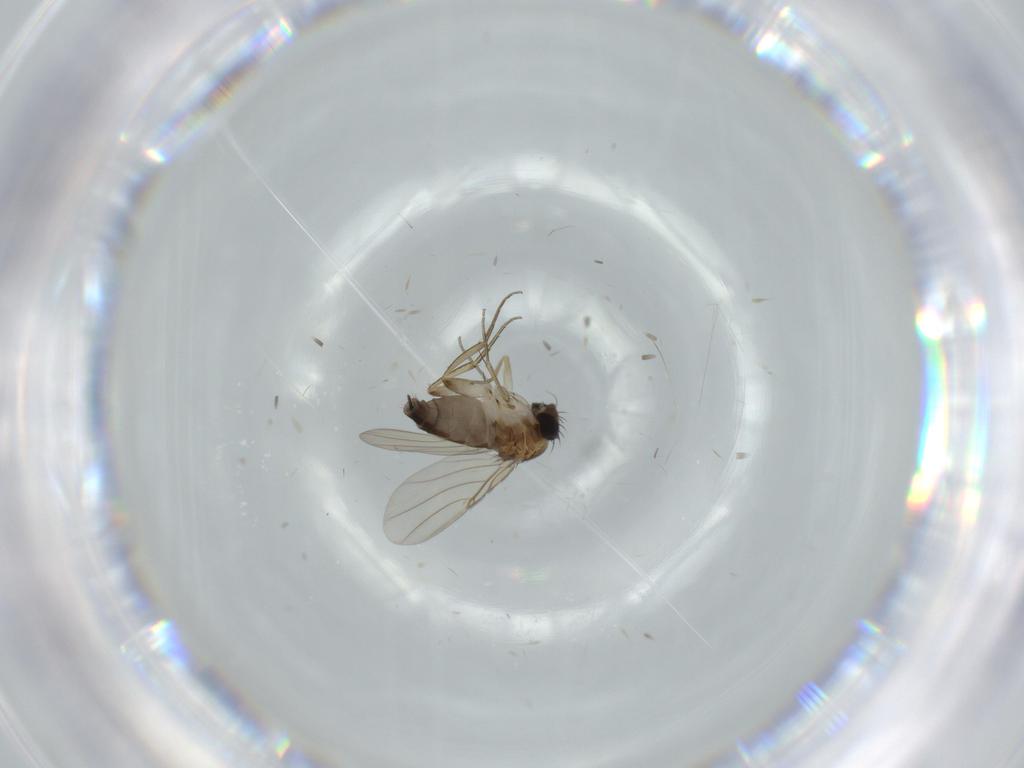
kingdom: Animalia
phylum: Arthropoda
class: Insecta
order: Diptera
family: Phoridae
